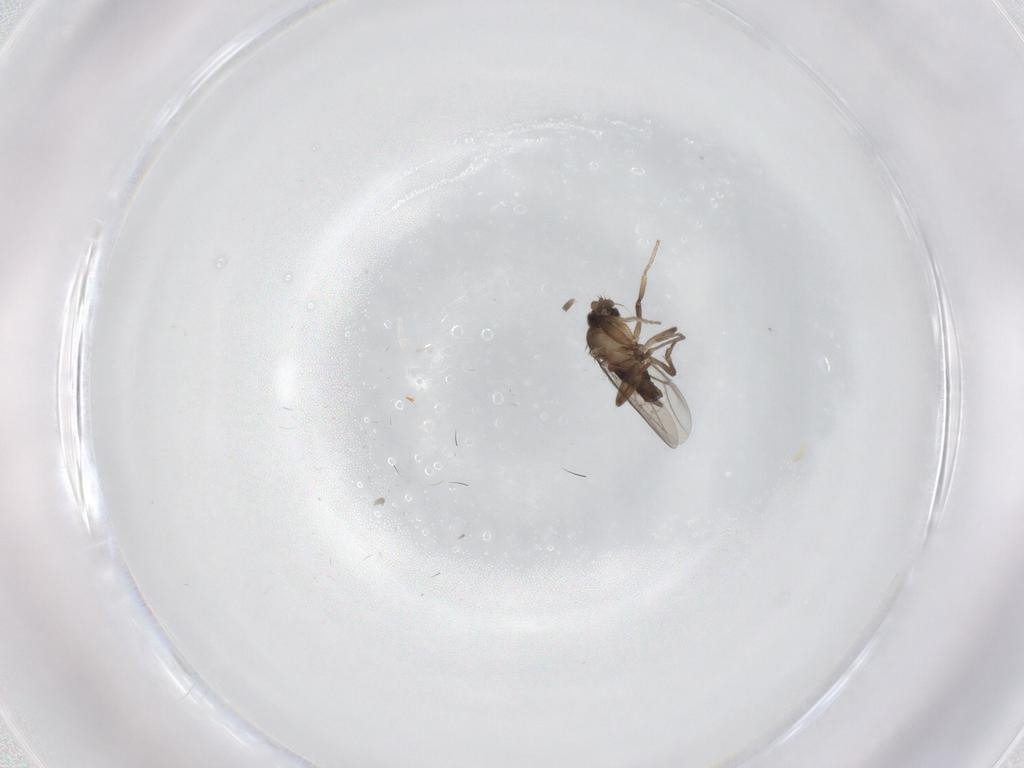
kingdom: Animalia
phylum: Arthropoda
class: Insecta
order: Diptera
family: Phoridae
